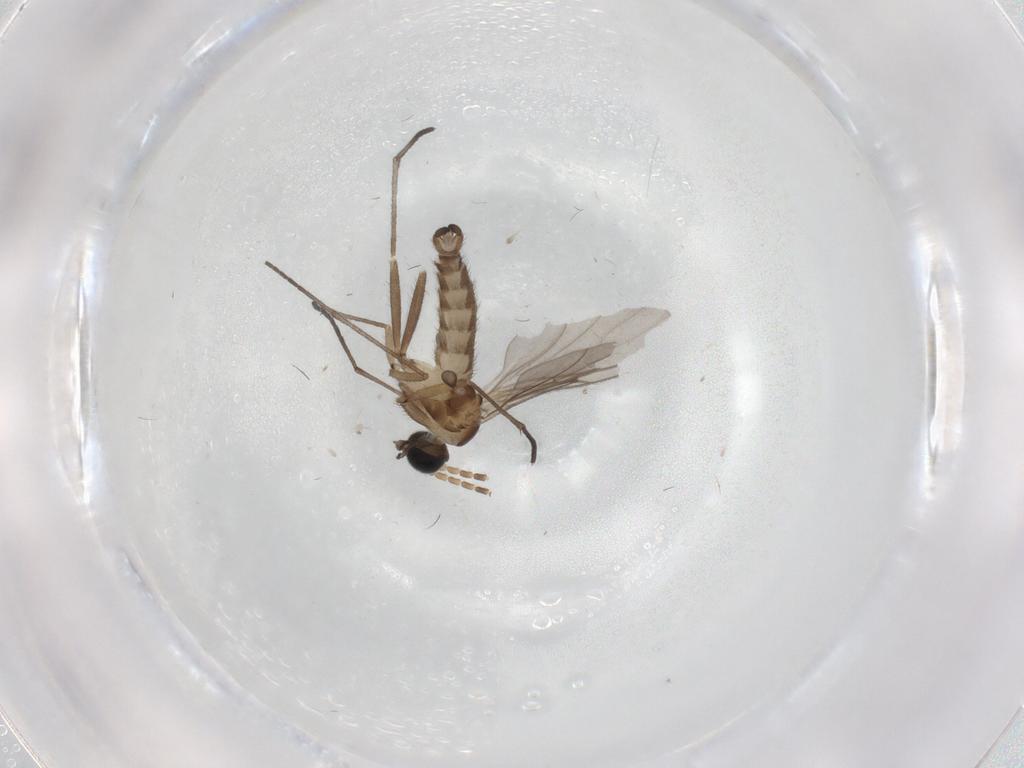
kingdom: Animalia
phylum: Arthropoda
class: Insecta
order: Diptera
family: Sciaridae
